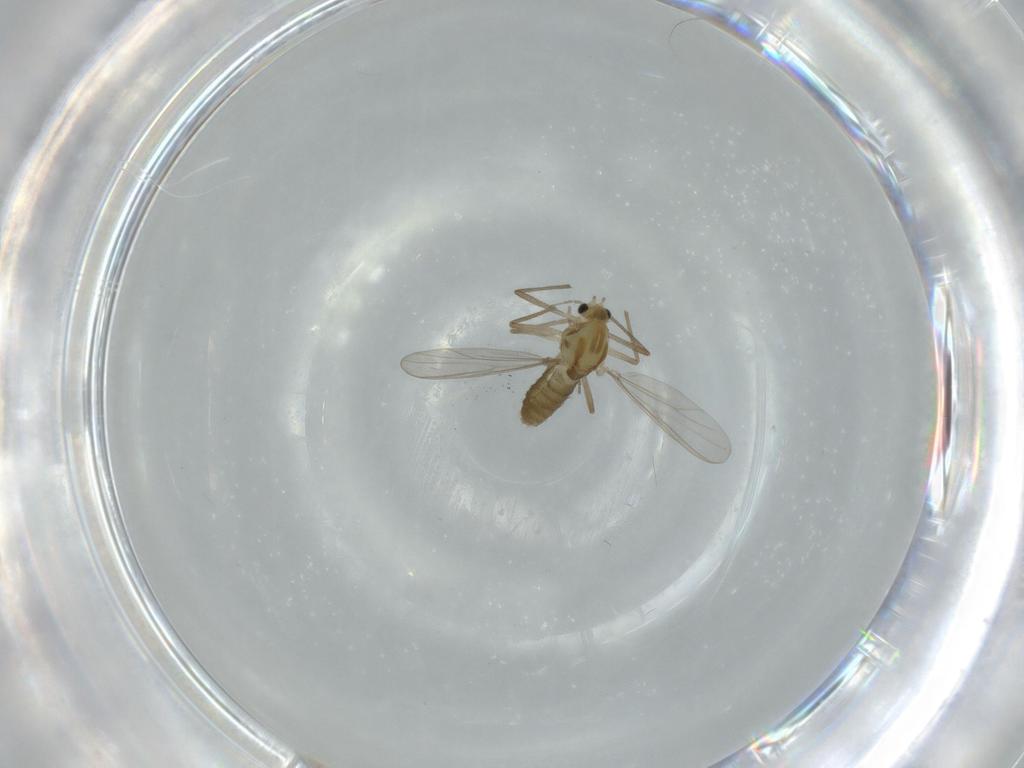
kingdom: Animalia
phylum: Arthropoda
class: Insecta
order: Diptera
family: Chironomidae
